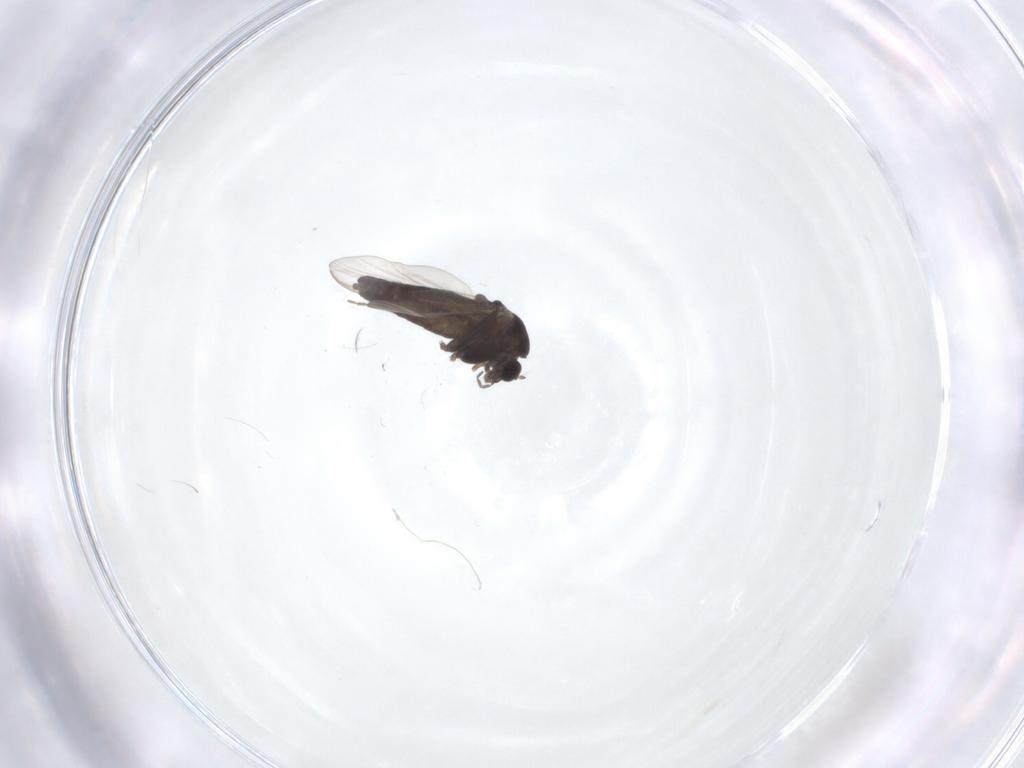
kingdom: Animalia
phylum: Arthropoda
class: Insecta
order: Diptera
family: Chironomidae
